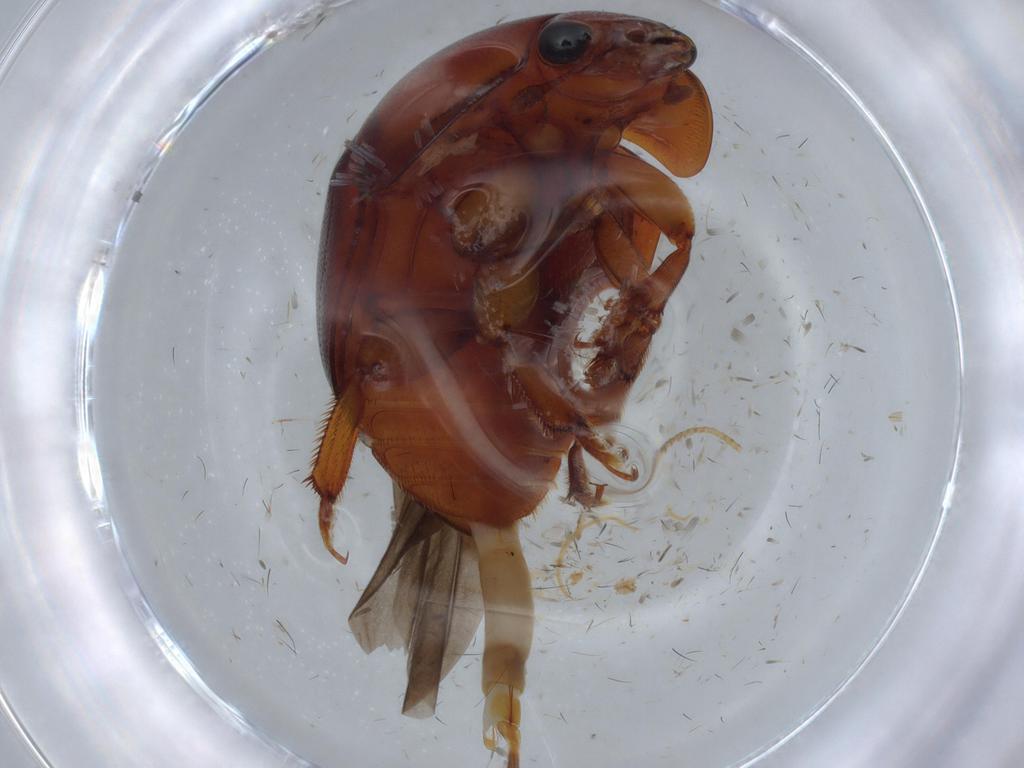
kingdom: Animalia
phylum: Arthropoda
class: Insecta
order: Coleoptera
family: Nitidulidae
